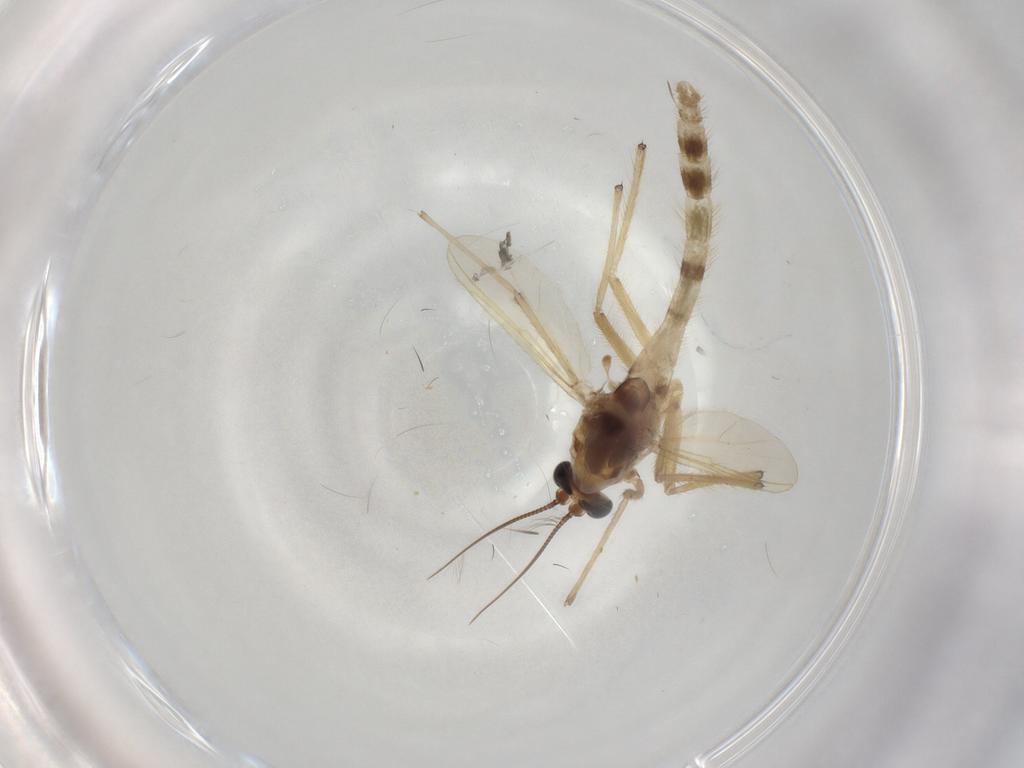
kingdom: Animalia
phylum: Arthropoda
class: Insecta
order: Diptera
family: Chironomidae
